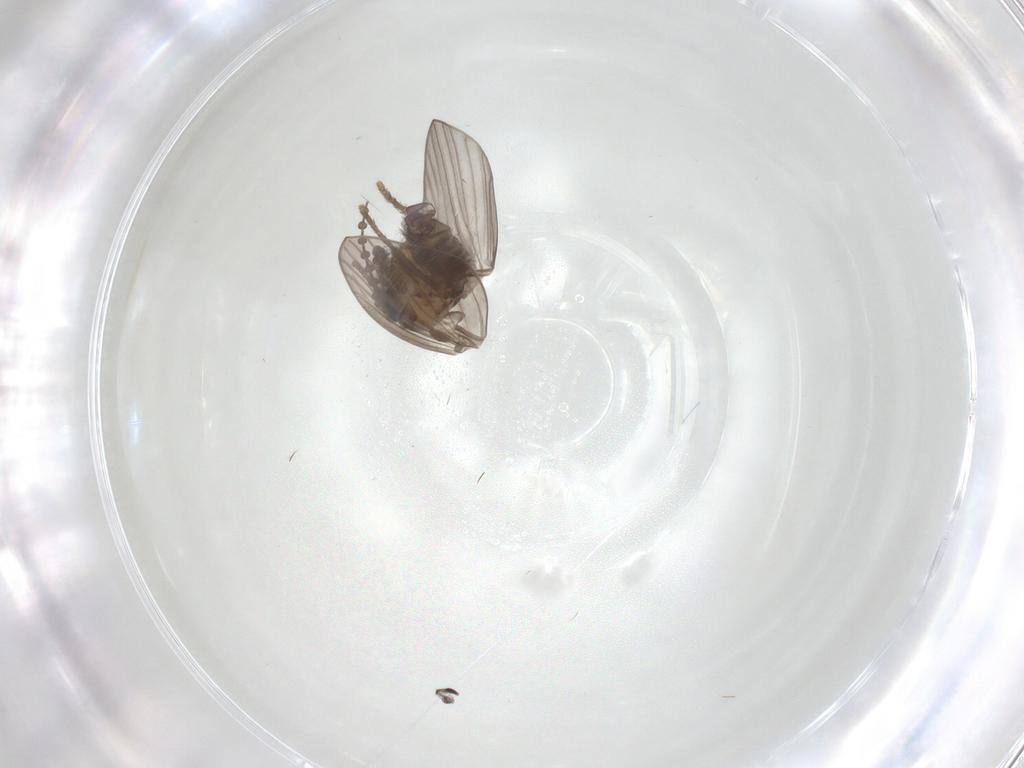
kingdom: Animalia
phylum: Arthropoda
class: Insecta
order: Diptera
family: Psychodidae
